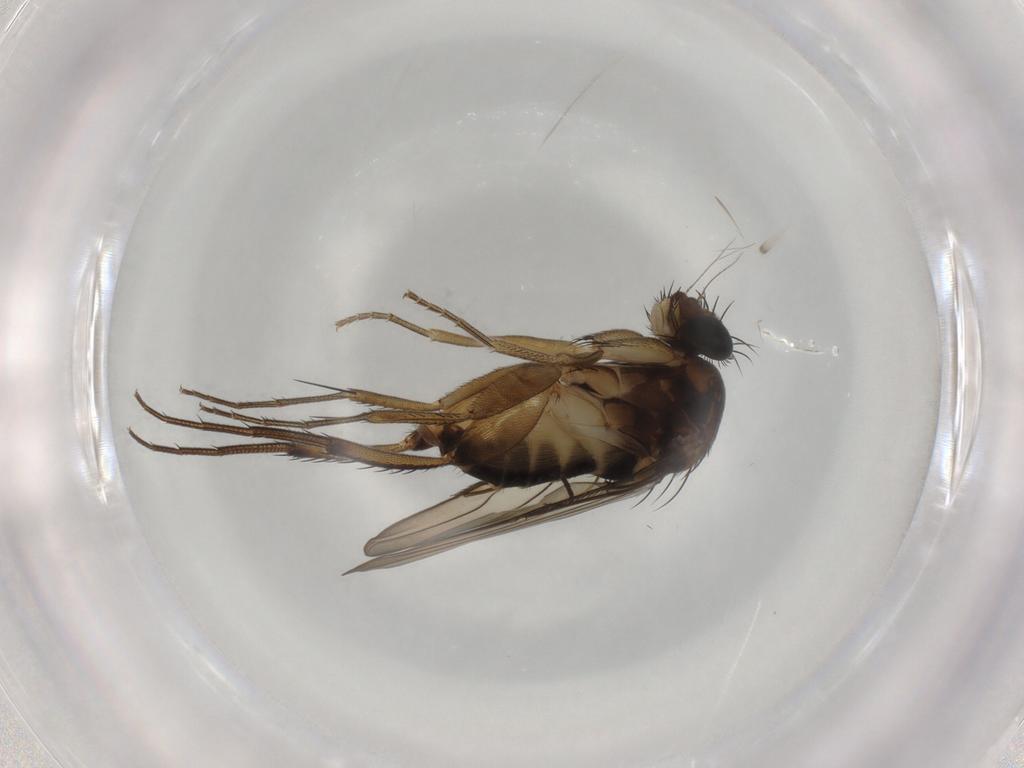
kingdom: Animalia
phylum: Arthropoda
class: Insecta
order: Diptera
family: Phoridae
